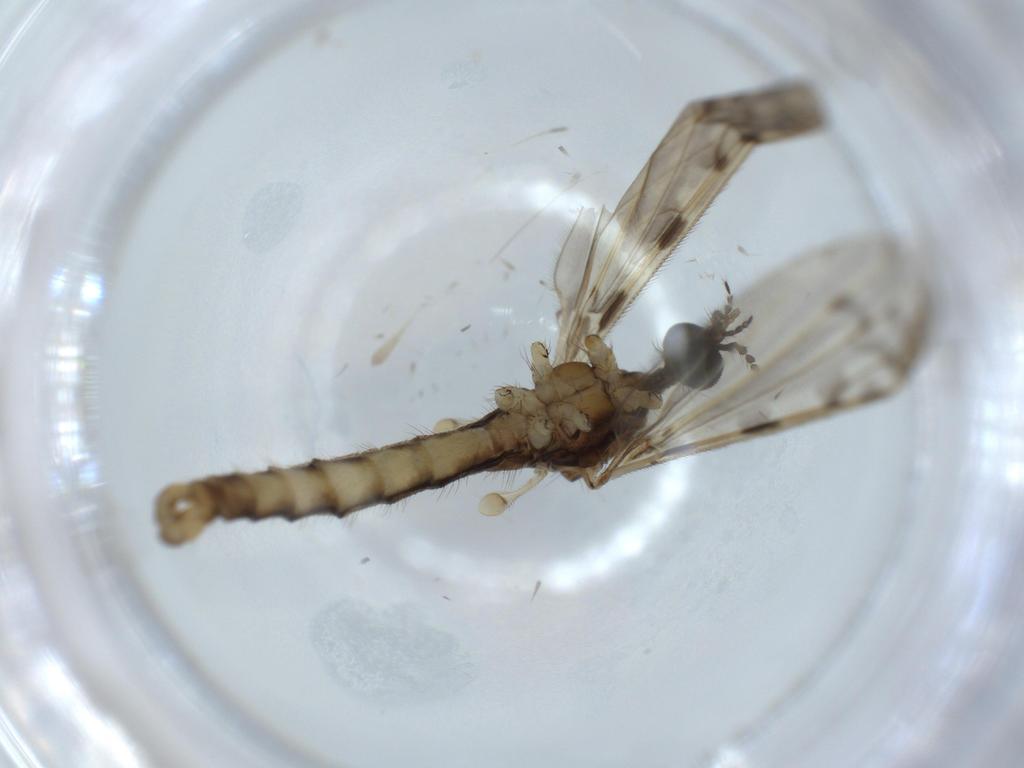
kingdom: Animalia
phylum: Arthropoda
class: Insecta
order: Diptera
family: Limoniidae
